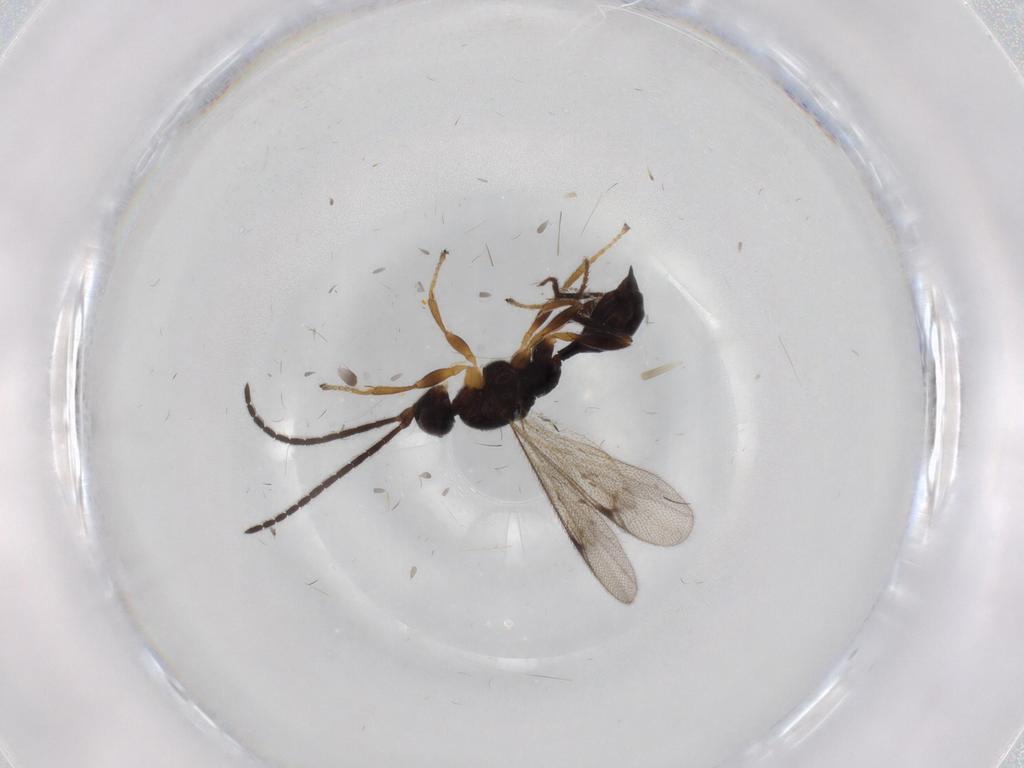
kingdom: Animalia
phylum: Arthropoda
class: Insecta
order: Hymenoptera
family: Proctotrupidae
